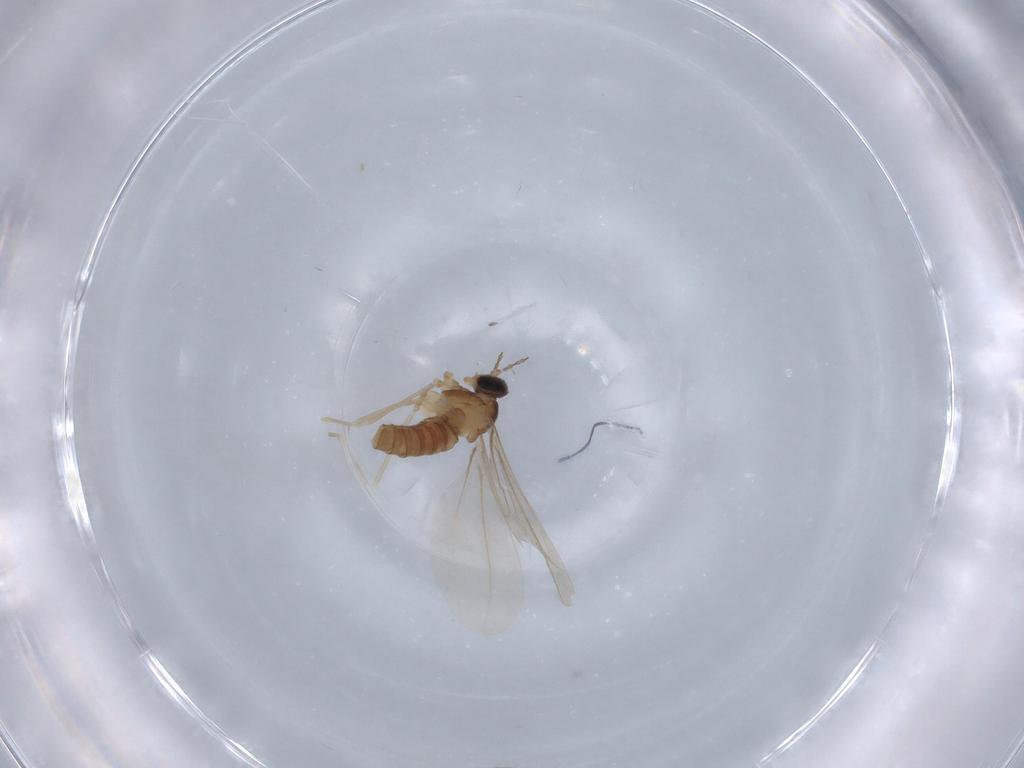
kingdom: Animalia
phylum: Arthropoda
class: Insecta
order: Diptera
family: Cecidomyiidae
